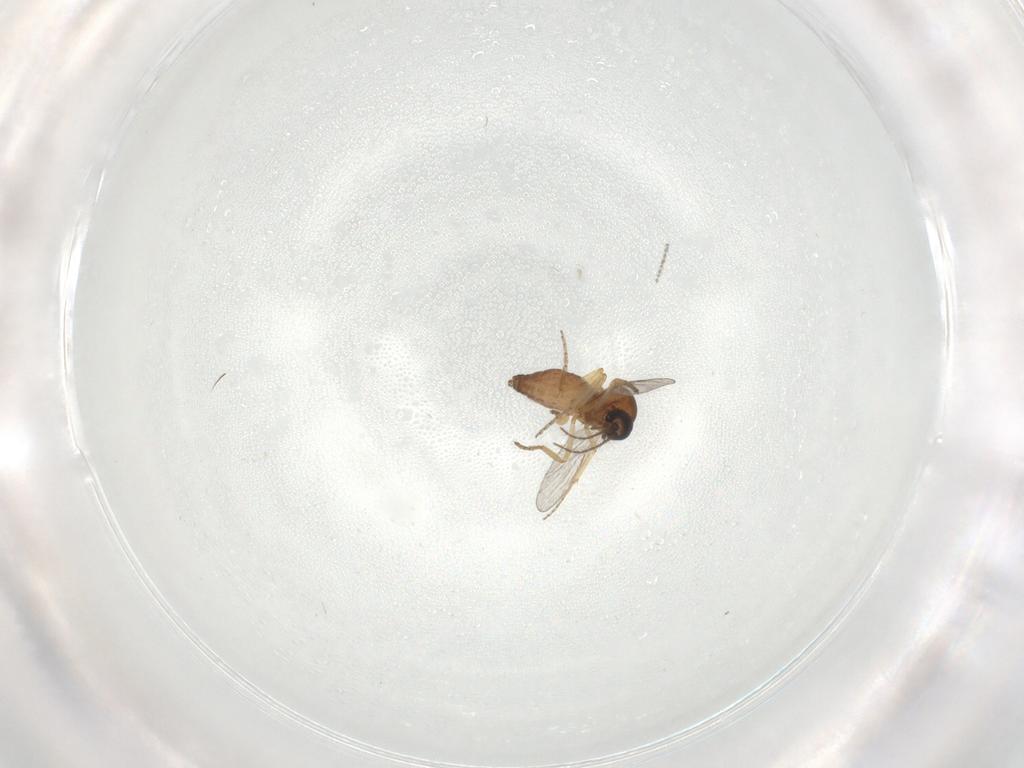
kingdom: Animalia
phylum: Arthropoda
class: Insecta
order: Diptera
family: Ceratopogonidae
